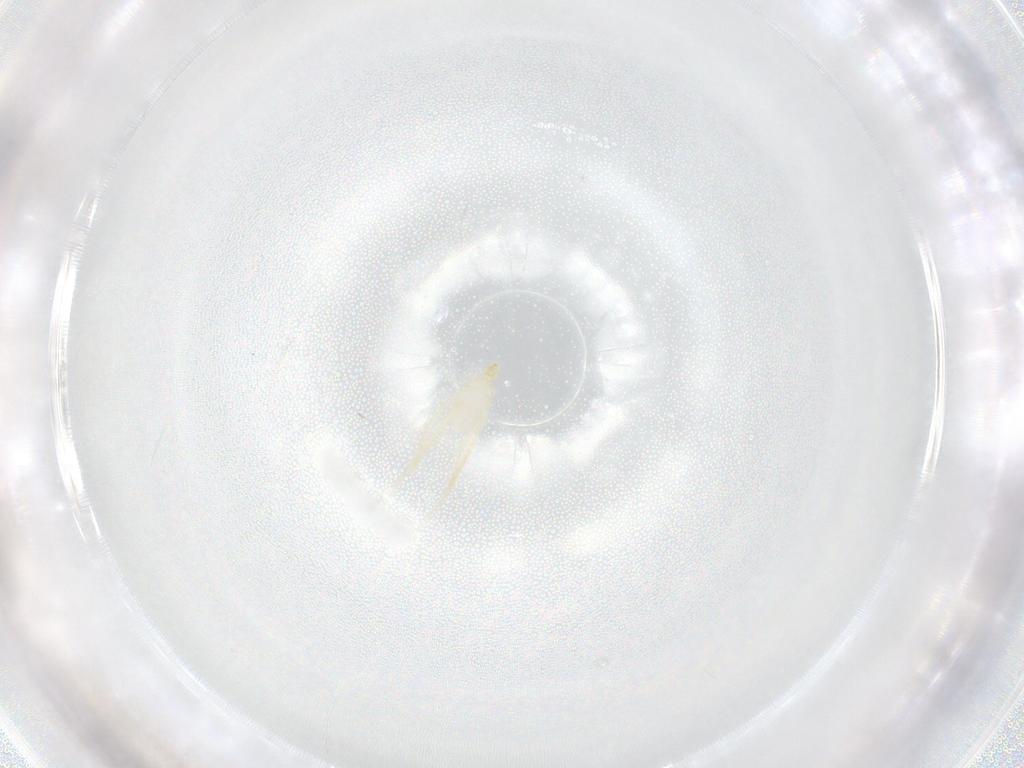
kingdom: Animalia
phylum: Arthropoda
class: Arachnida
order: Trombidiformes
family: Erythraeidae
